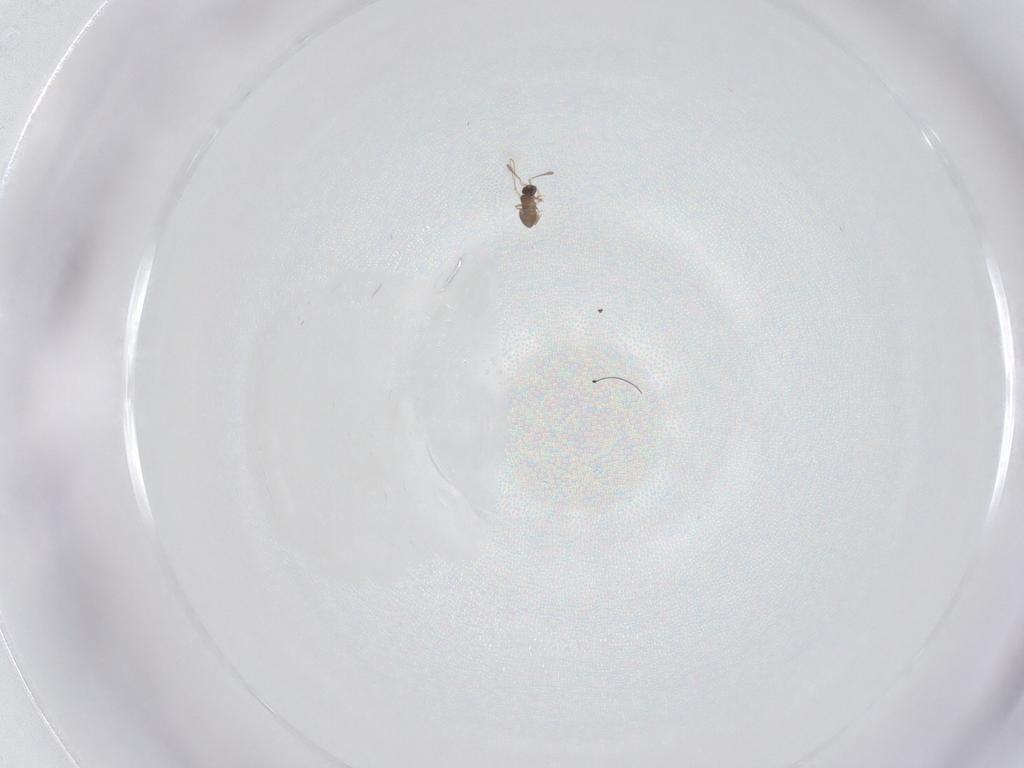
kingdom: Animalia
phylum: Arthropoda
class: Insecta
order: Hymenoptera
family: Mymaridae
